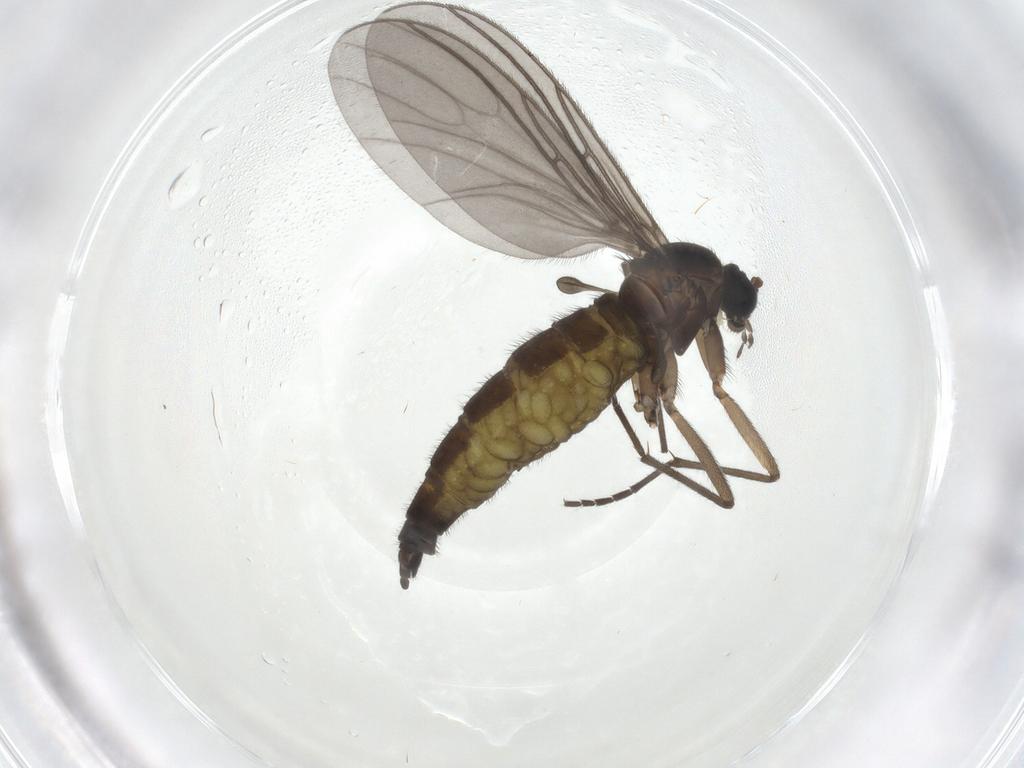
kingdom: Animalia
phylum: Arthropoda
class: Insecta
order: Diptera
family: Sciaridae
